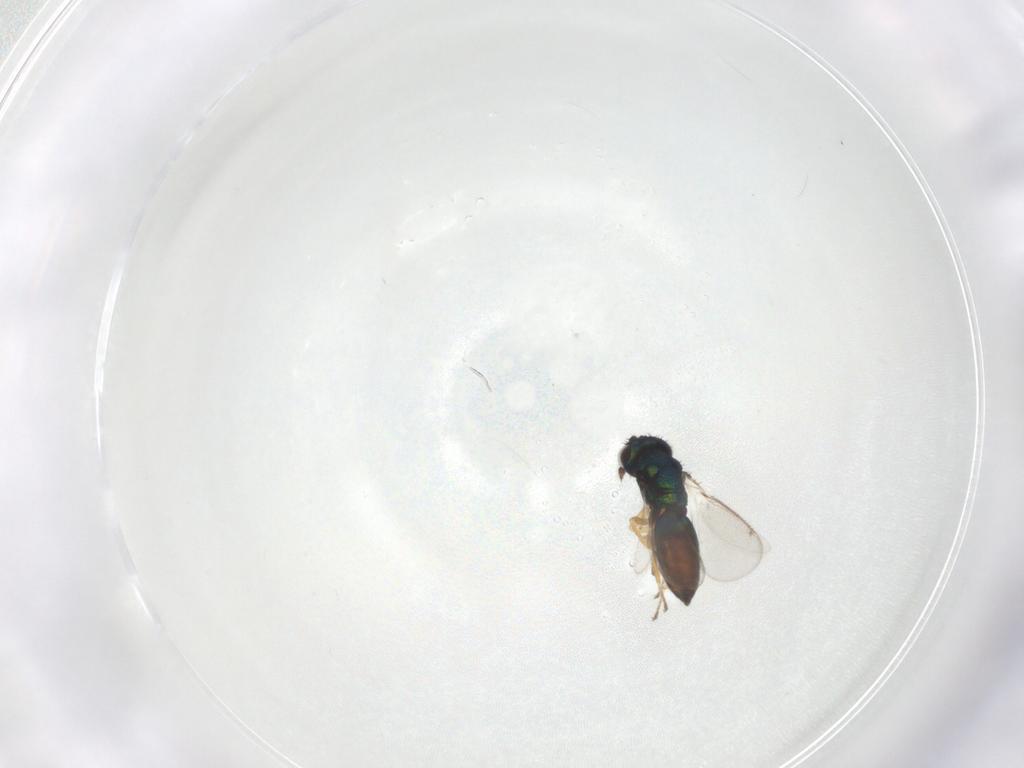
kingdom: Animalia
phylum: Arthropoda
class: Insecta
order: Hymenoptera
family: Eulophidae
